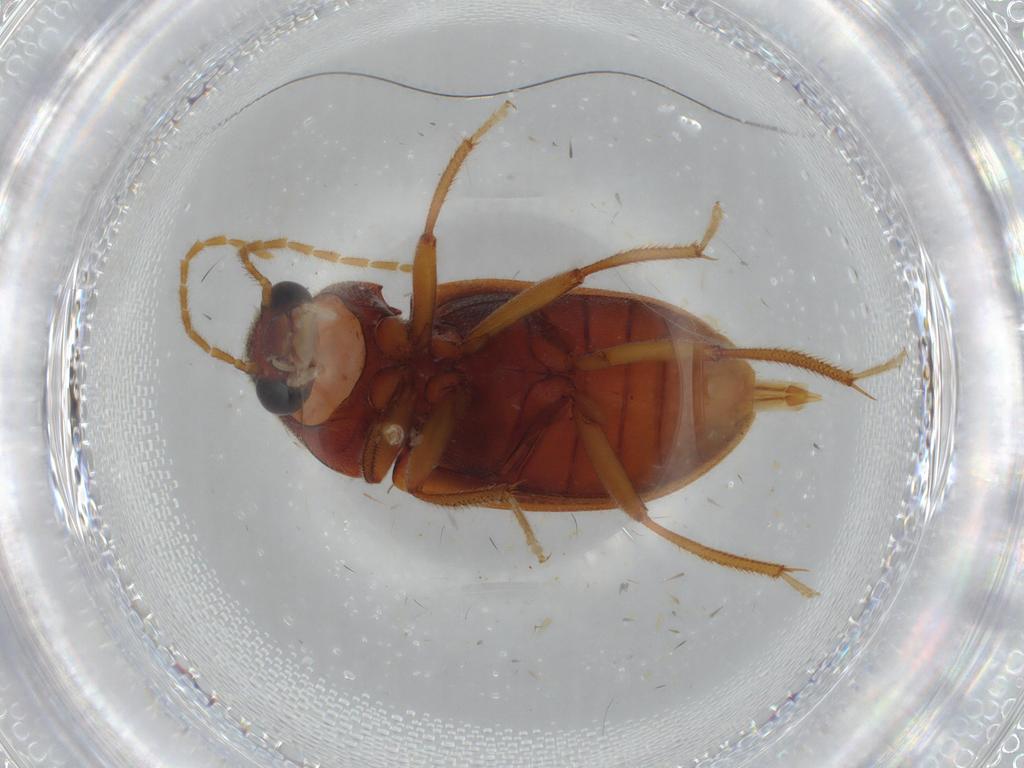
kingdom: Animalia
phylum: Arthropoda
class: Insecta
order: Coleoptera
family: Ptilodactylidae
